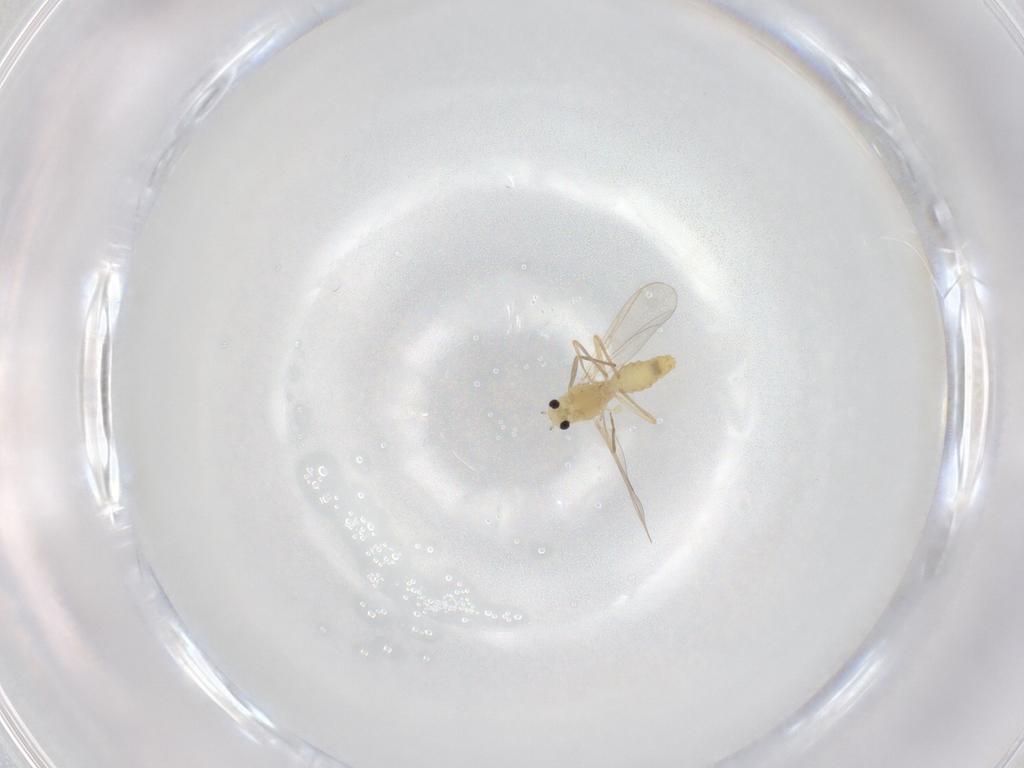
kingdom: Animalia
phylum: Arthropoda
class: Insecta
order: Diptera
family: Chironomidae
